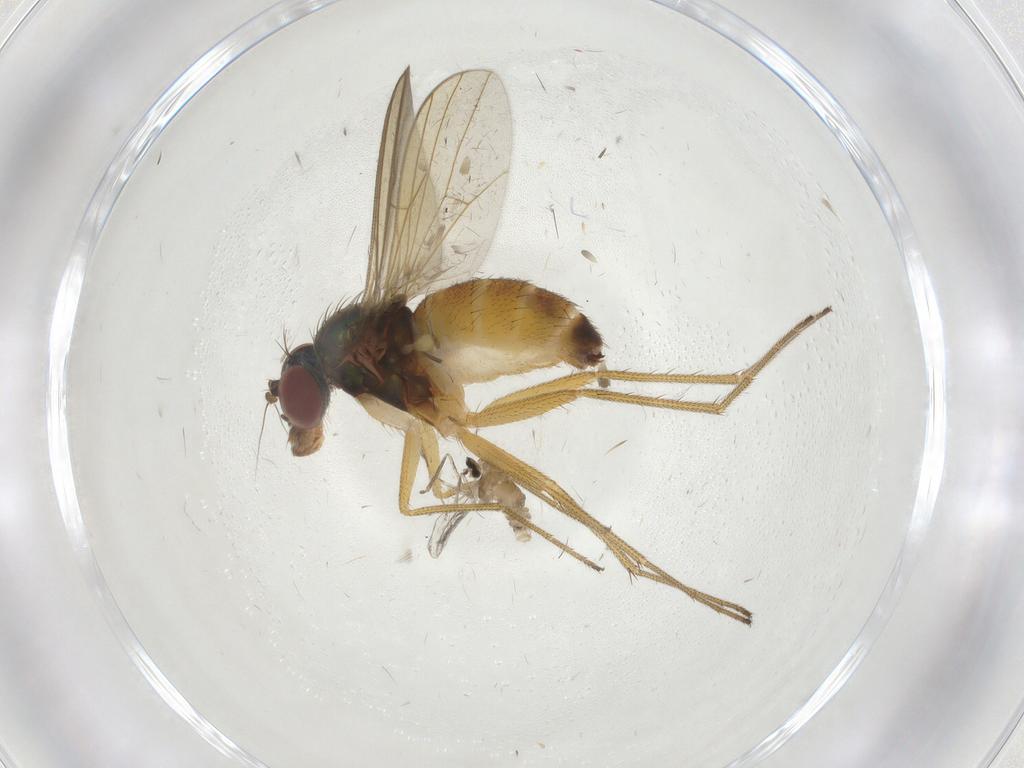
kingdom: Animalia
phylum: Arthropoda
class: Insecta
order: Diptera
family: Dolichopodidae
